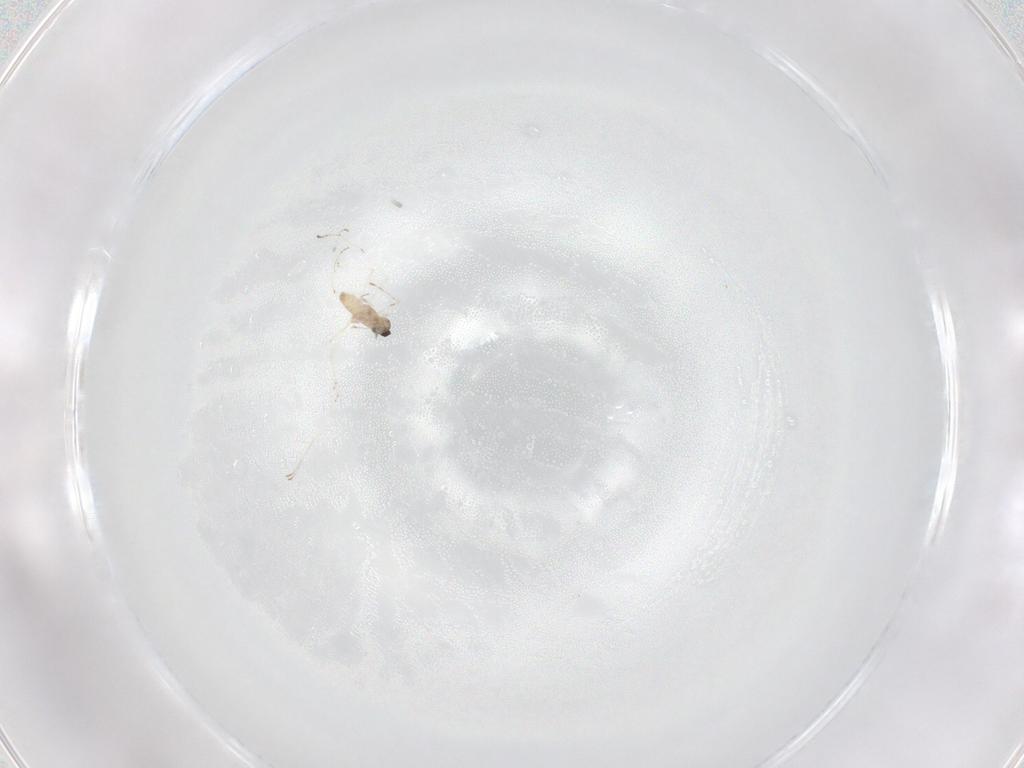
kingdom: Animalia
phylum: Arthropoda
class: Insecta
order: Diptera
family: Cecidomyiidae
